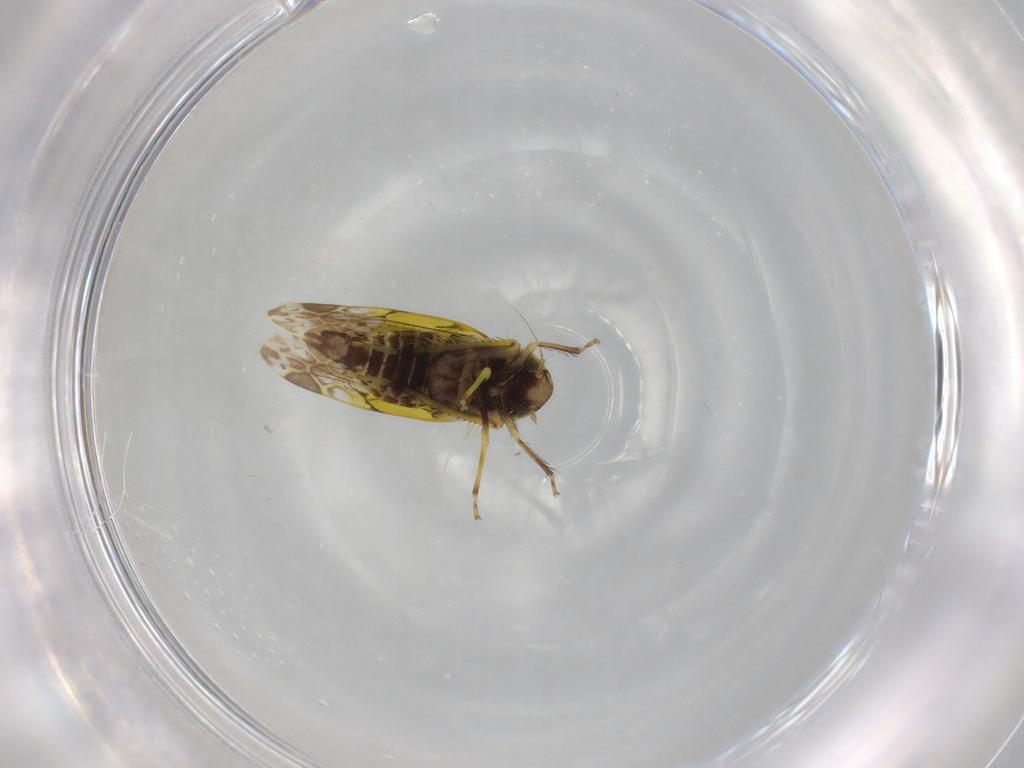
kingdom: Animalia
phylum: Arthropoda
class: Insecta
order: Hemiptera
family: Cicadellidae
